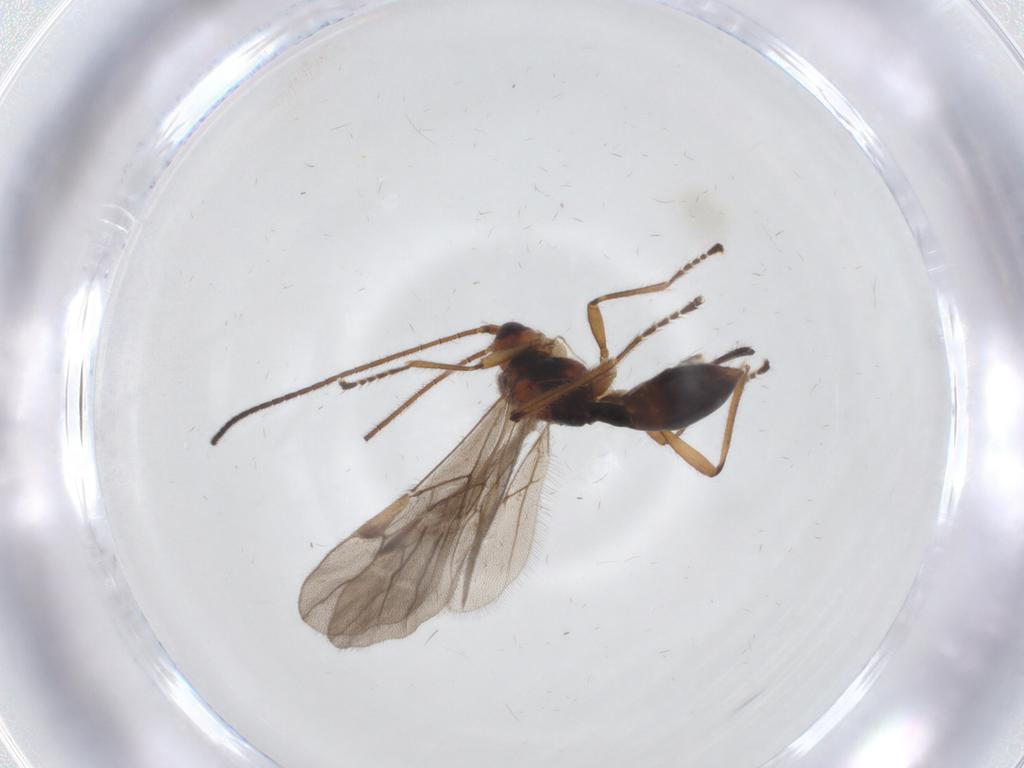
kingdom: Animalia
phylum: Arthropoda
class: Insecta
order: Hymenoptera
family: Braconidae
